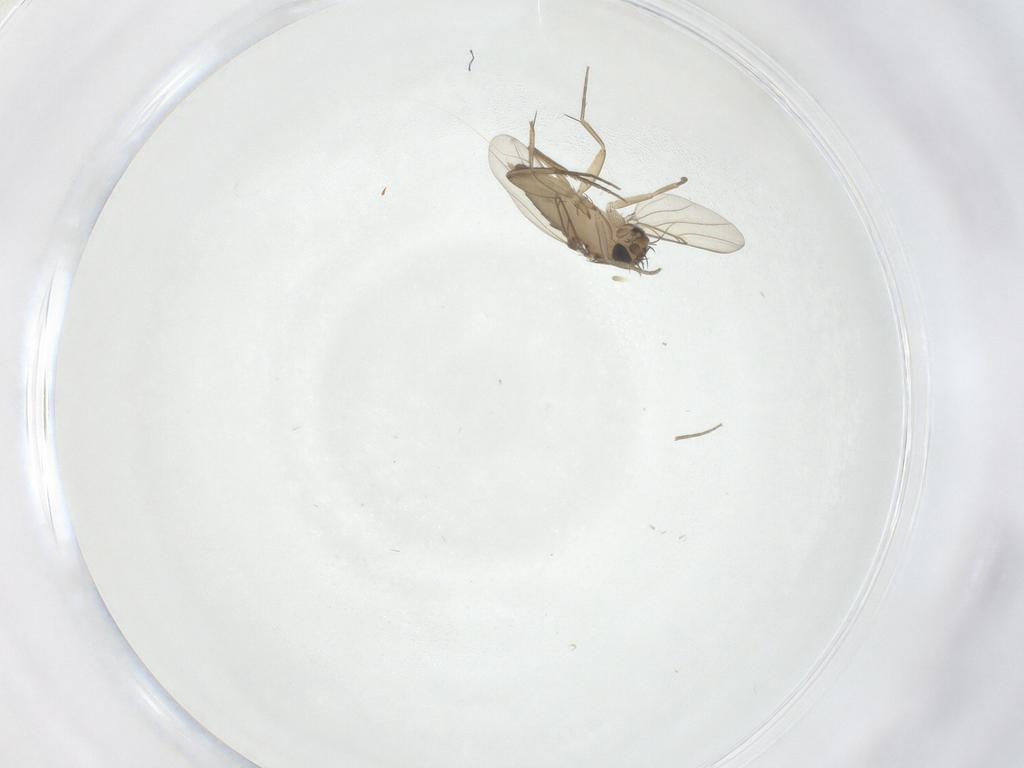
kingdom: Animalia
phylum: Arthropoda
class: Insecta
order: Diptera
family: Phoridae
